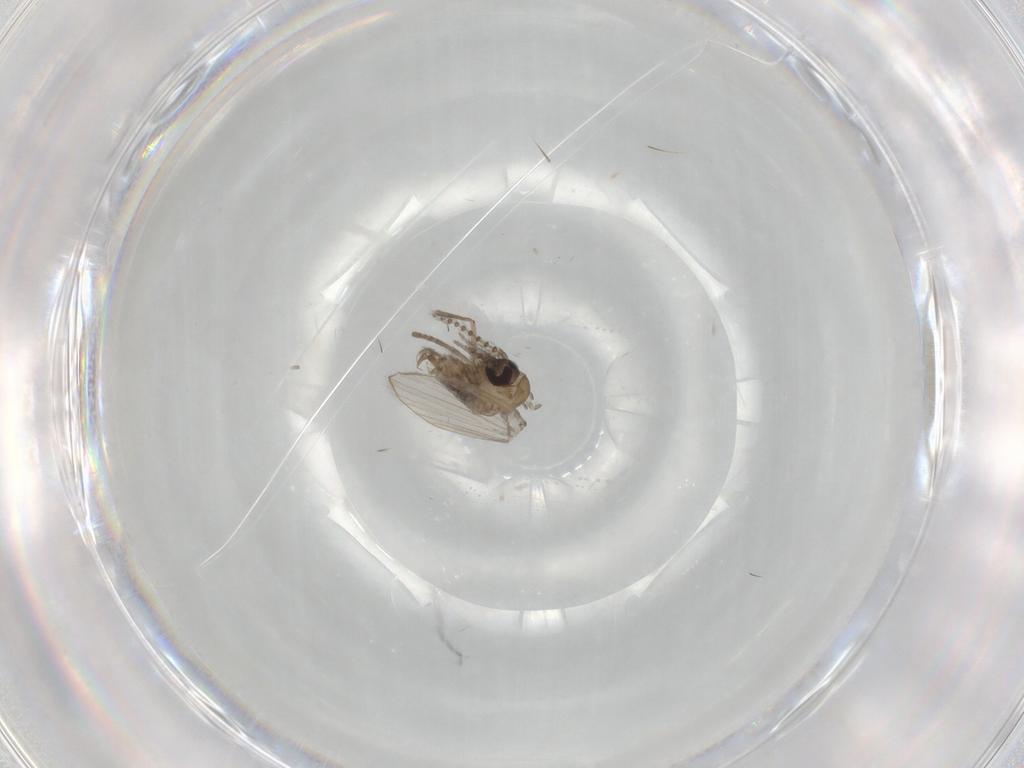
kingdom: Animalia
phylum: Arthropoda
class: Insecta
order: Diptera
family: Psychodidae
